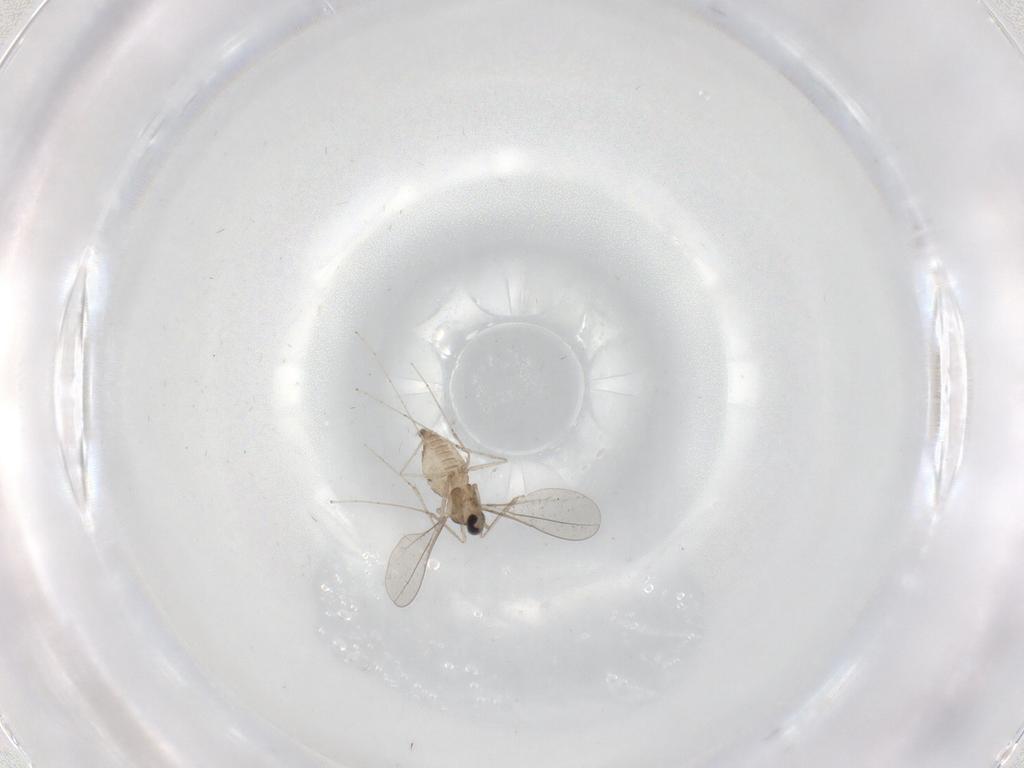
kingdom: Animalia
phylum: Arthropoda
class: Insecta
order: Diptera
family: Cecidomyiidae
